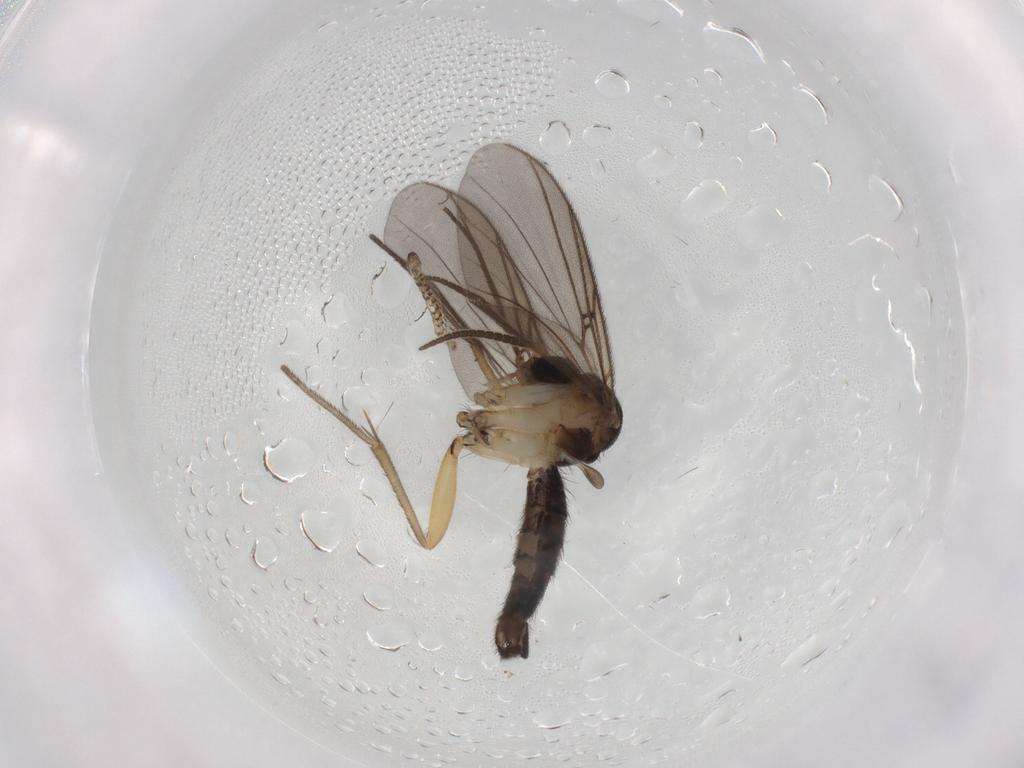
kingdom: Animalia
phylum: Arthropoda
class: Insecta
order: Diptera
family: Mycetophilidae
